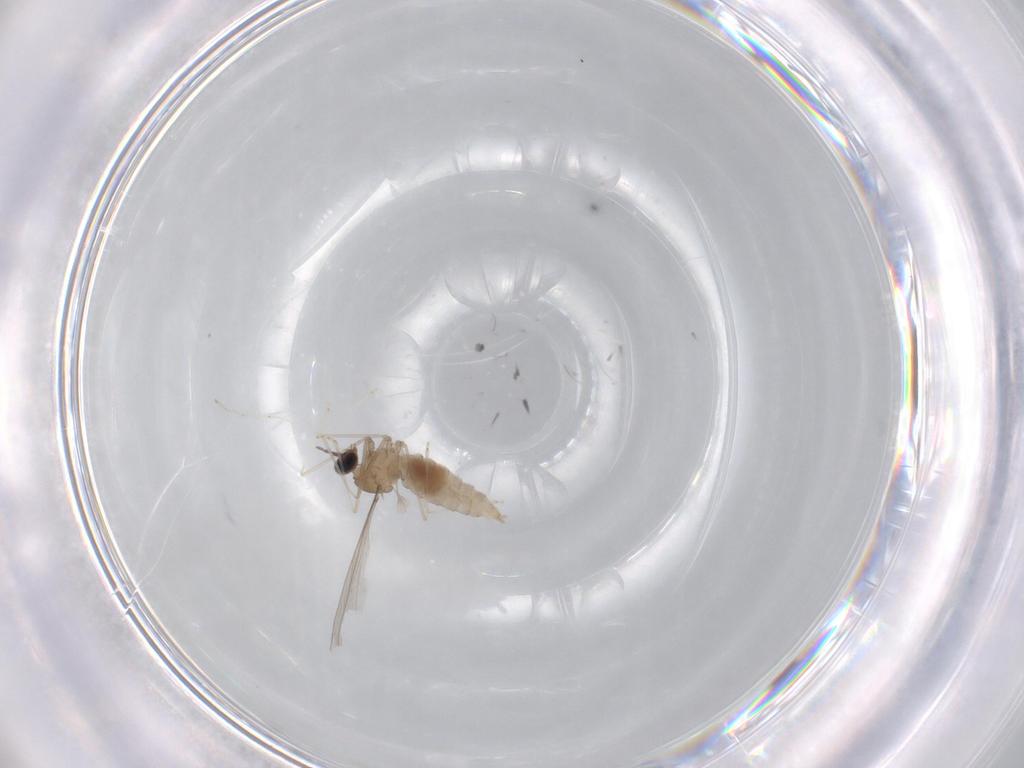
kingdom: Animalia
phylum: Arthropoda
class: Insecta
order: Diptera
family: Cecidomyiidae
